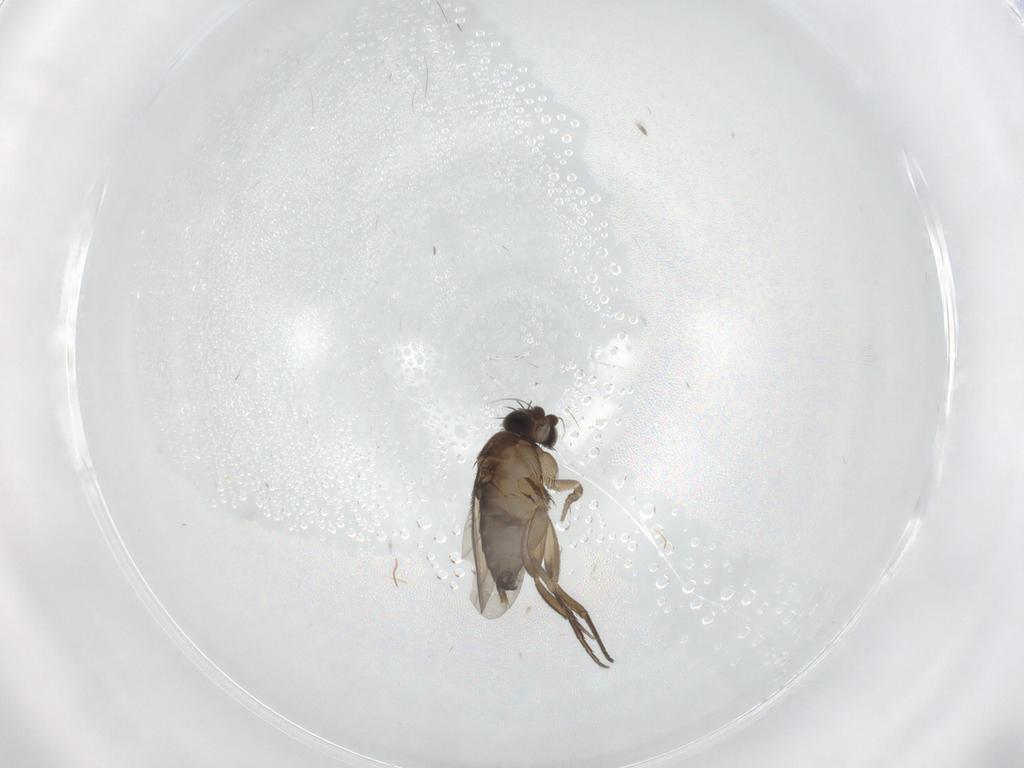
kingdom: Animalia
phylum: Arthropoda
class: Insecta
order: Diptera
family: Phoridae
